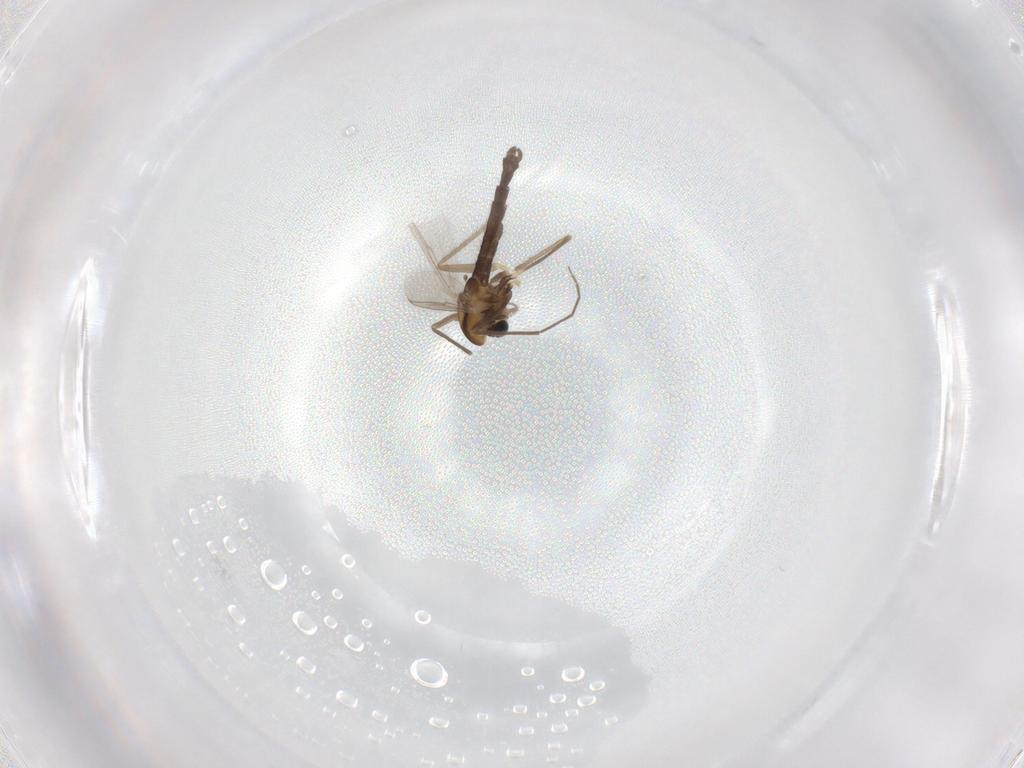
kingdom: Animalia
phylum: Arthropoda
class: Insecta
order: Diptera
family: Chironomidae
